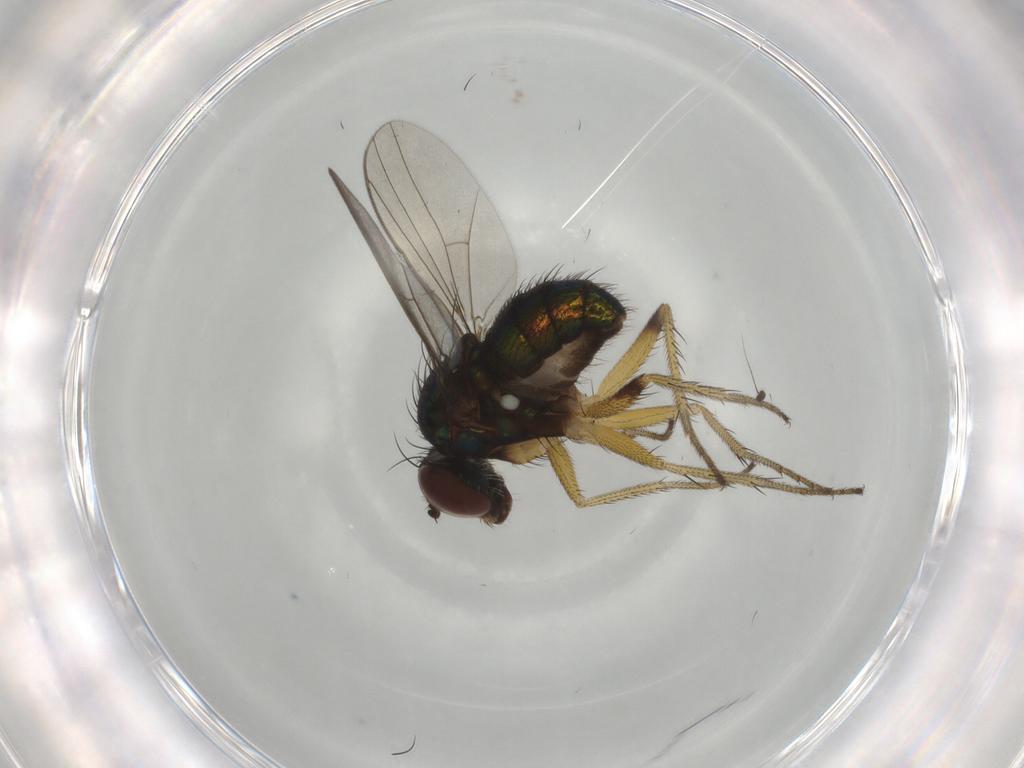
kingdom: Animalia
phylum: Arthropoda
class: Insecta
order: Diptera
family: Dolichopodidae
